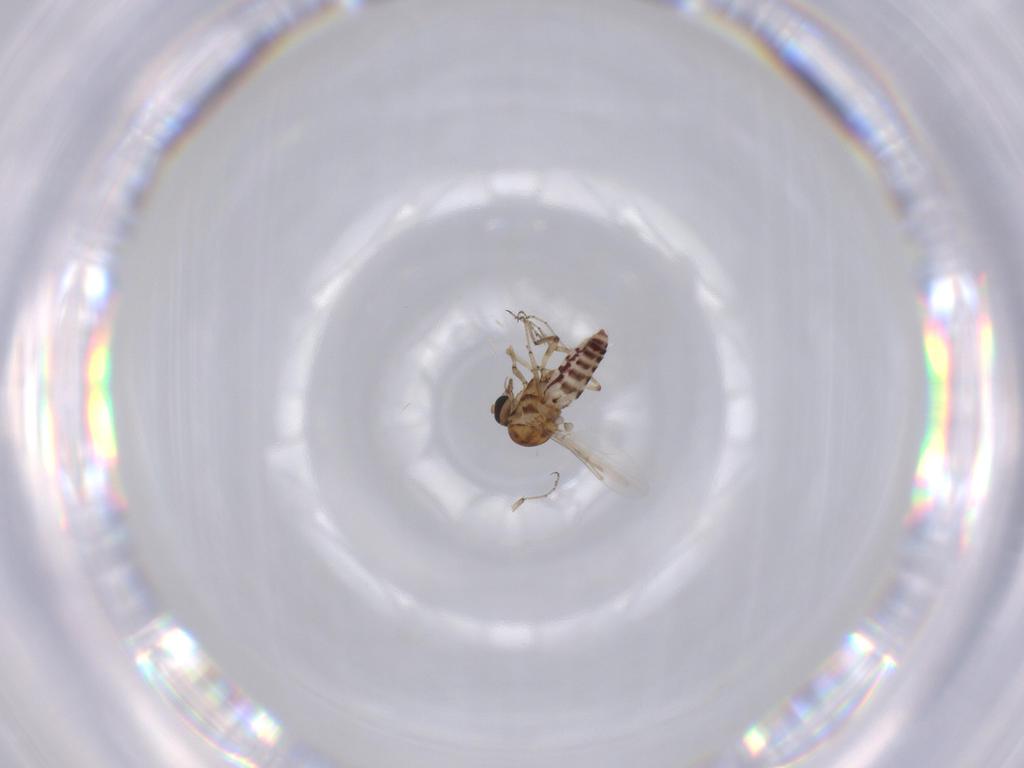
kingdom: Animalia
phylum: Arthropoda
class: Insecta
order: Diptera
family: Ceratopogonidae
